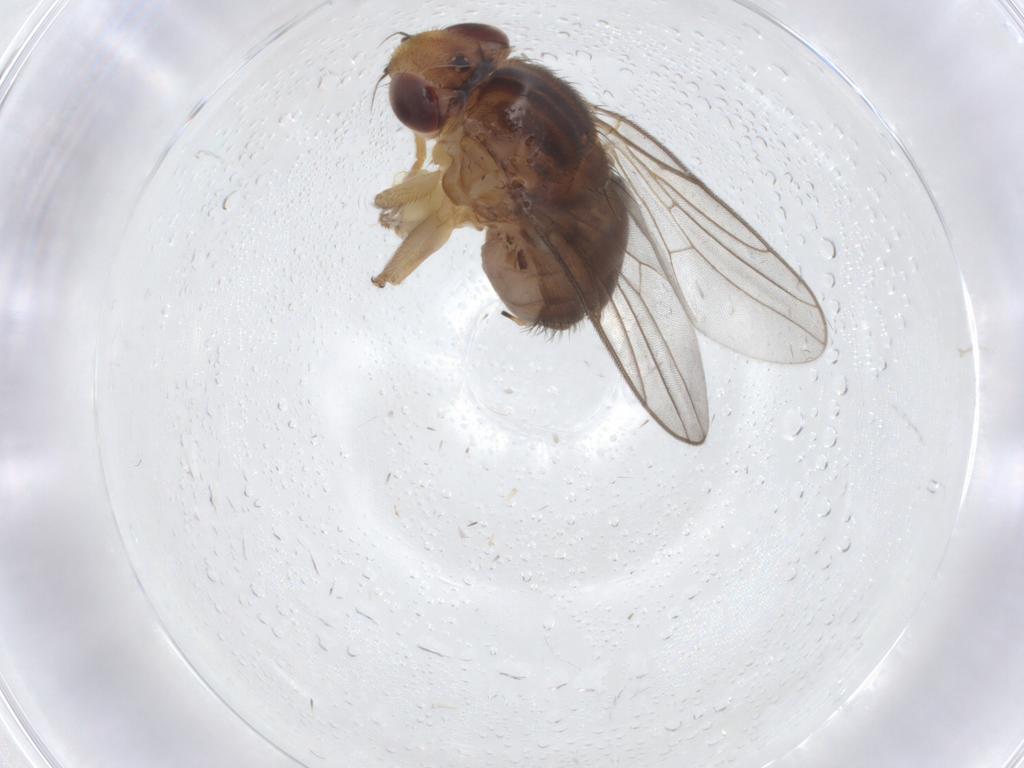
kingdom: Animalia
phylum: Arthropoda
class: Insecta
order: Diptera
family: Chloropidae
